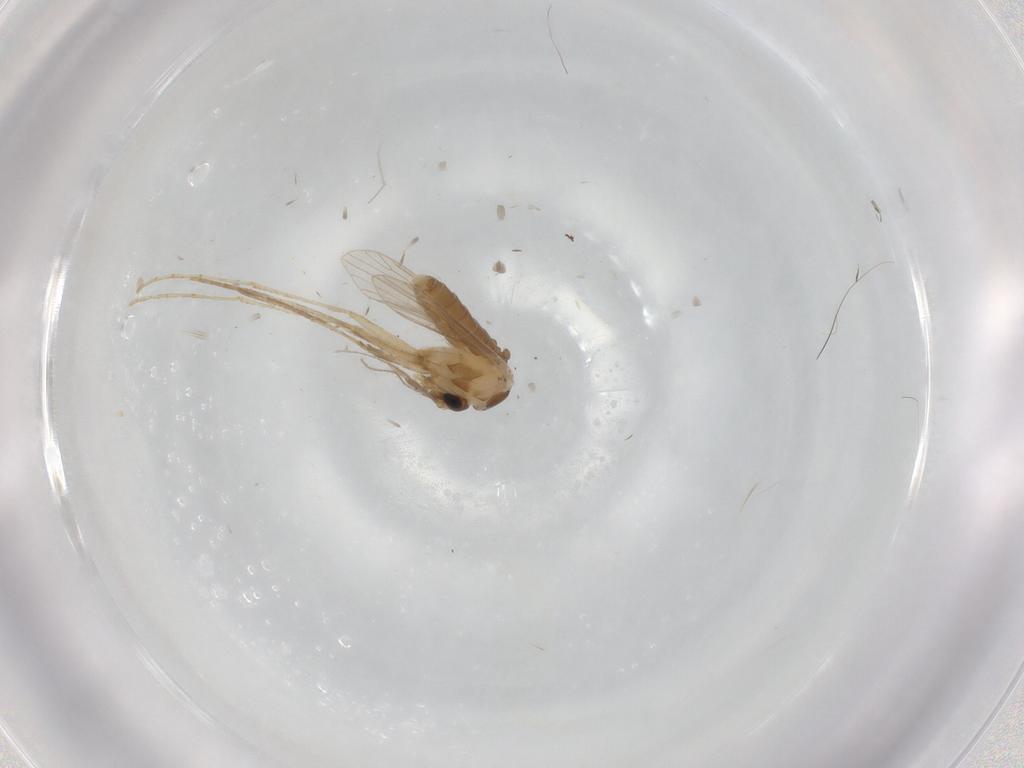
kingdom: Animalia
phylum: Arthropoda
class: Insecta
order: Diptera
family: Psychodidae
